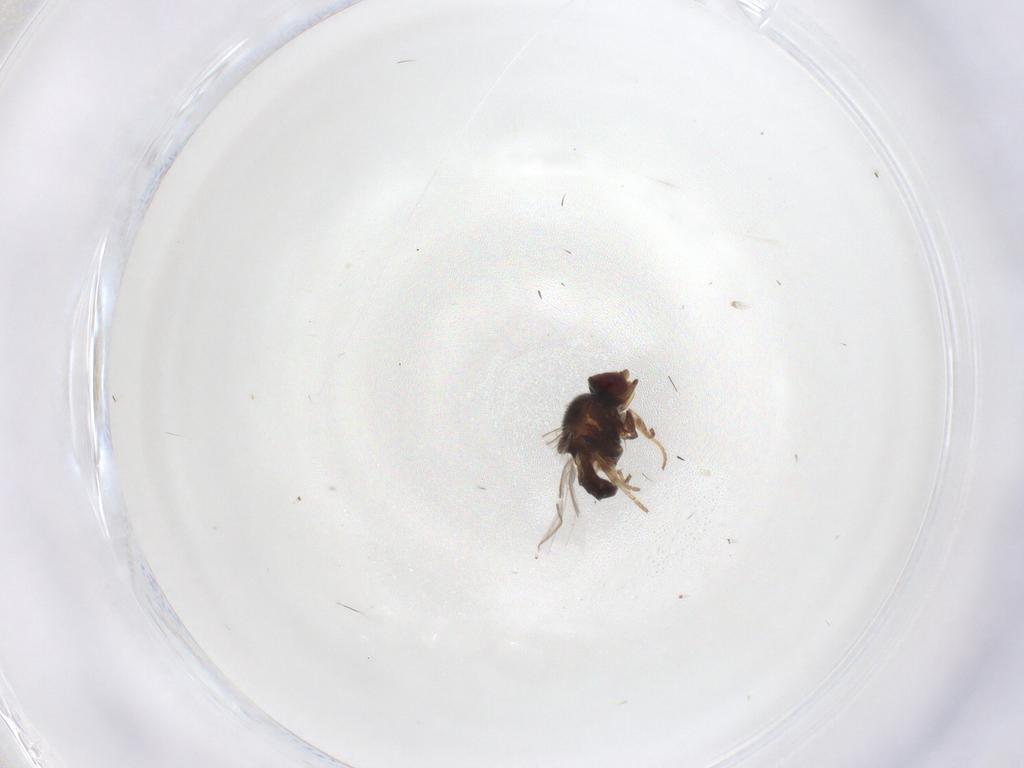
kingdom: Animalia
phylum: Arthropoda
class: Insecta
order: Diptera
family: Phoridae
